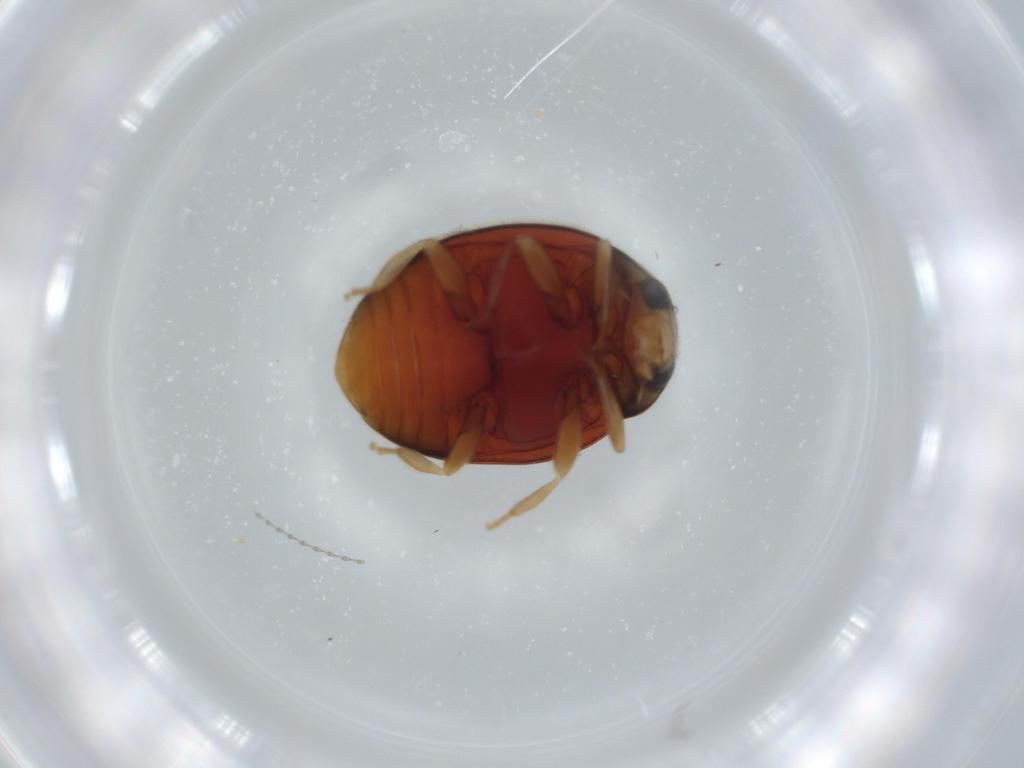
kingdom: Animalia
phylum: Arthropoda
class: Insecta
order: Coleoptera
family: Coccinellidae
